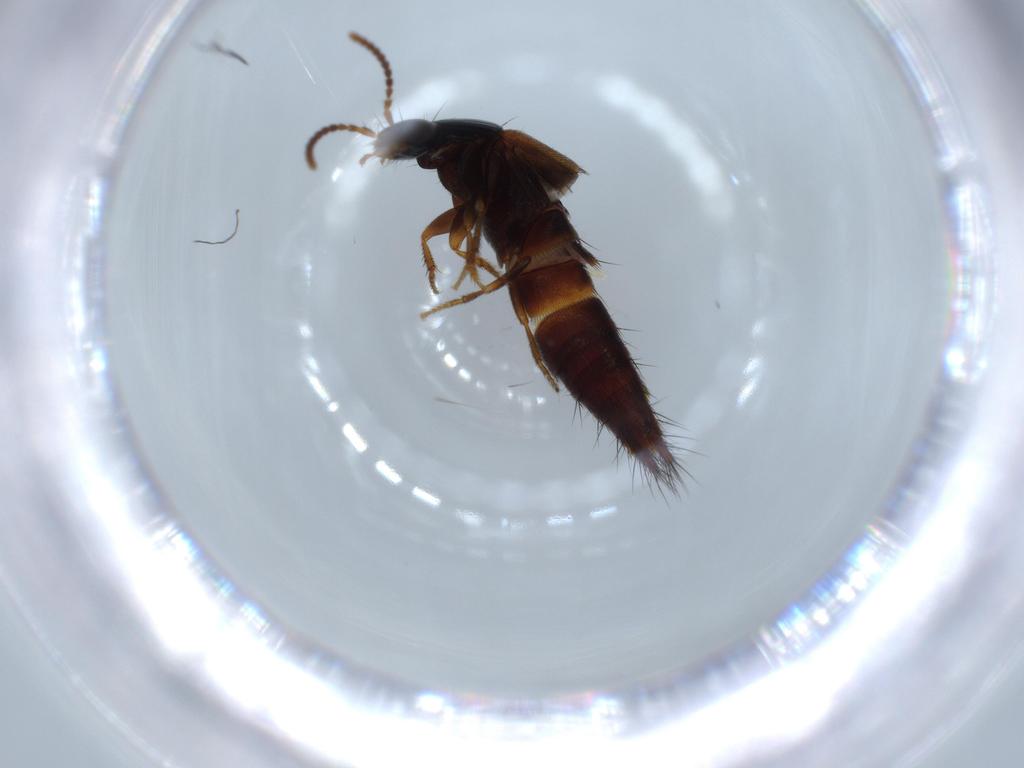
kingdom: Animalia
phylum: Arthropoda
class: Insecta
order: Coleoptera
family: Staphylinidae
